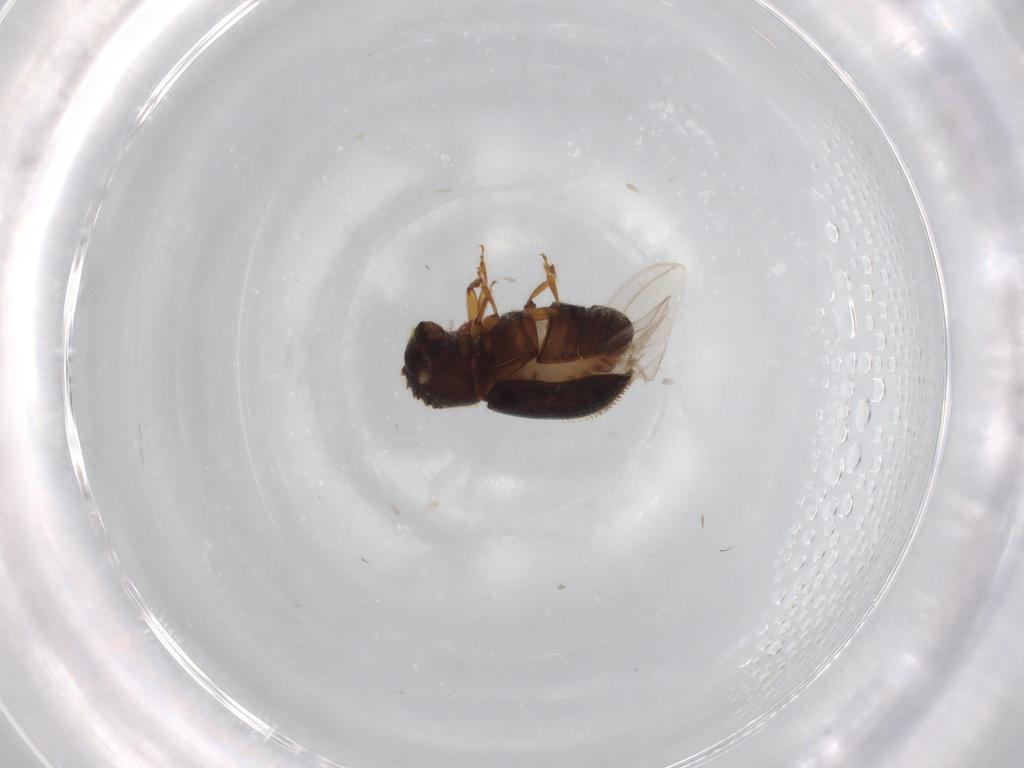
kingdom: Animalia
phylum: Arthropoda
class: Insecta
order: Coleoptera
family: Curculionidae
